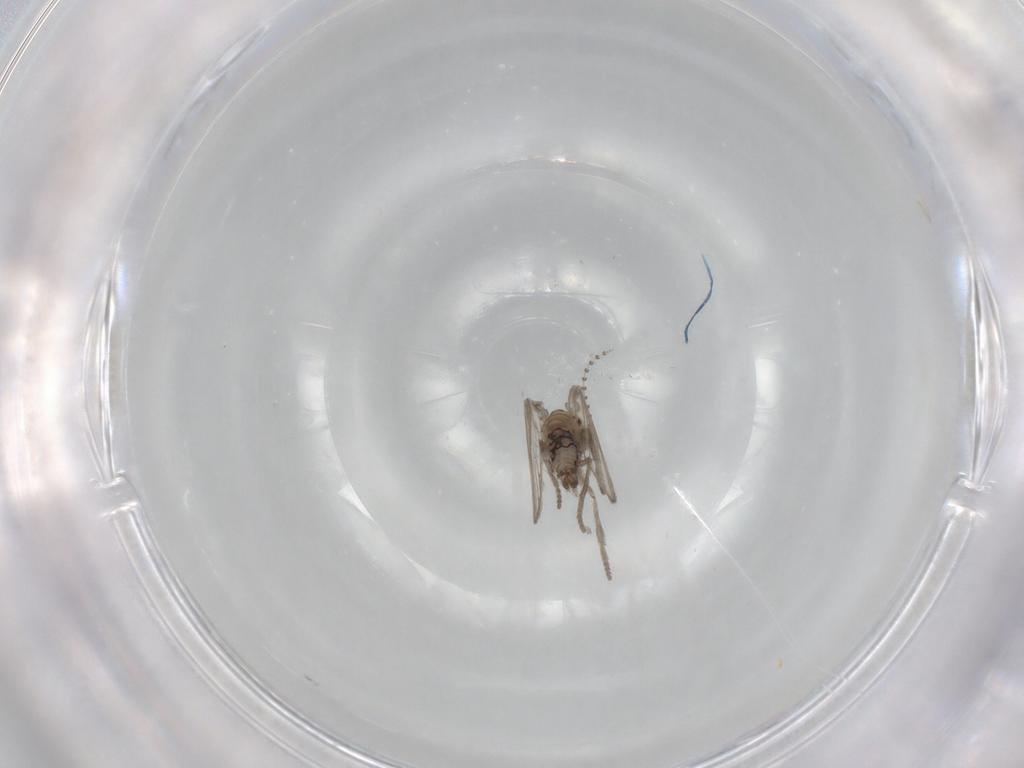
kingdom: Animalia
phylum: Arthropoda
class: Insecta
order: Diptera
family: Psychodidae
